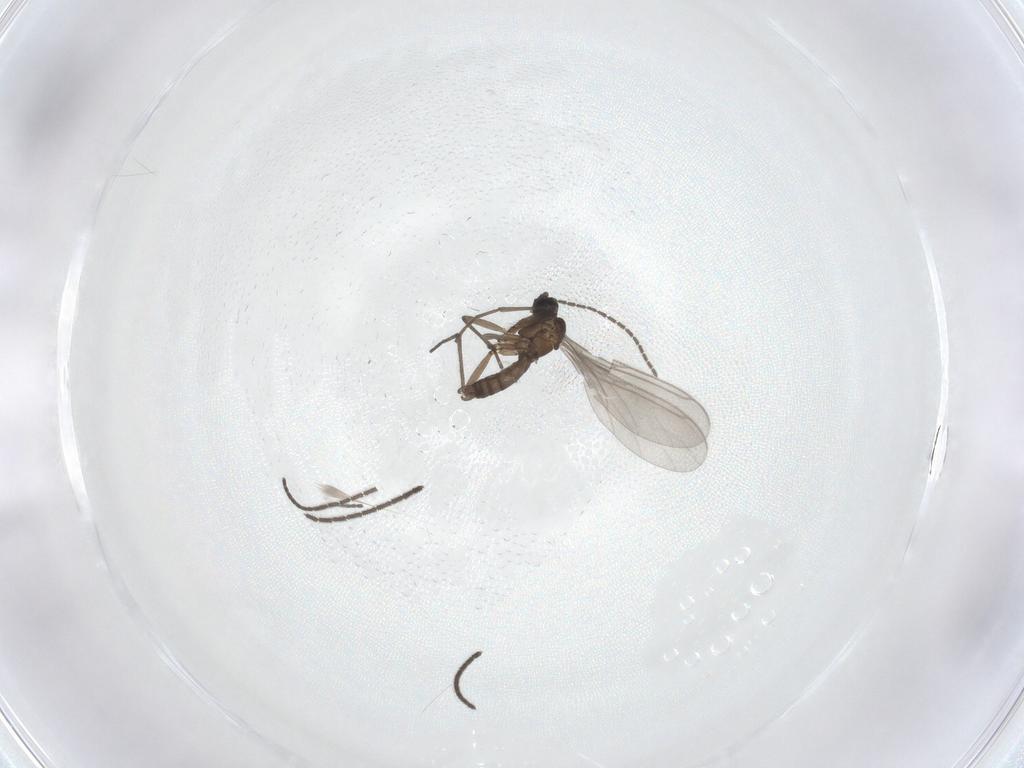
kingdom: Animalia
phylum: Arthropoda
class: Insecta
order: Diptera
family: Sciaridae
